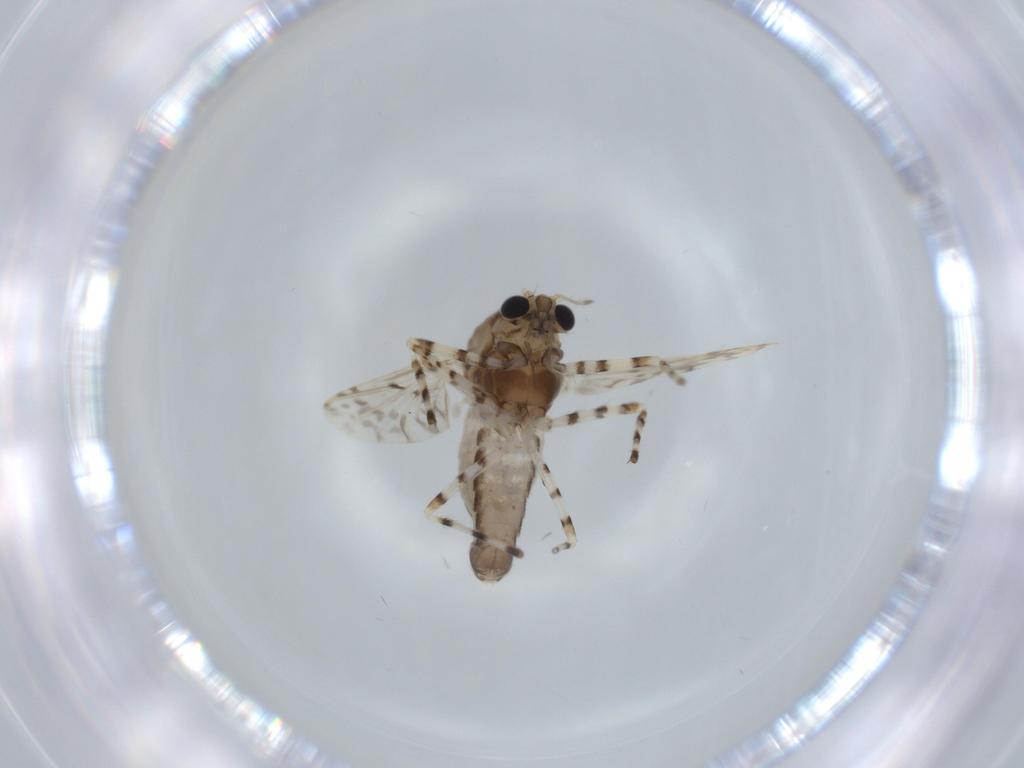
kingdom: Animalia
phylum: Arthropoda
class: Insecta
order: Diptera
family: Chironomidae
